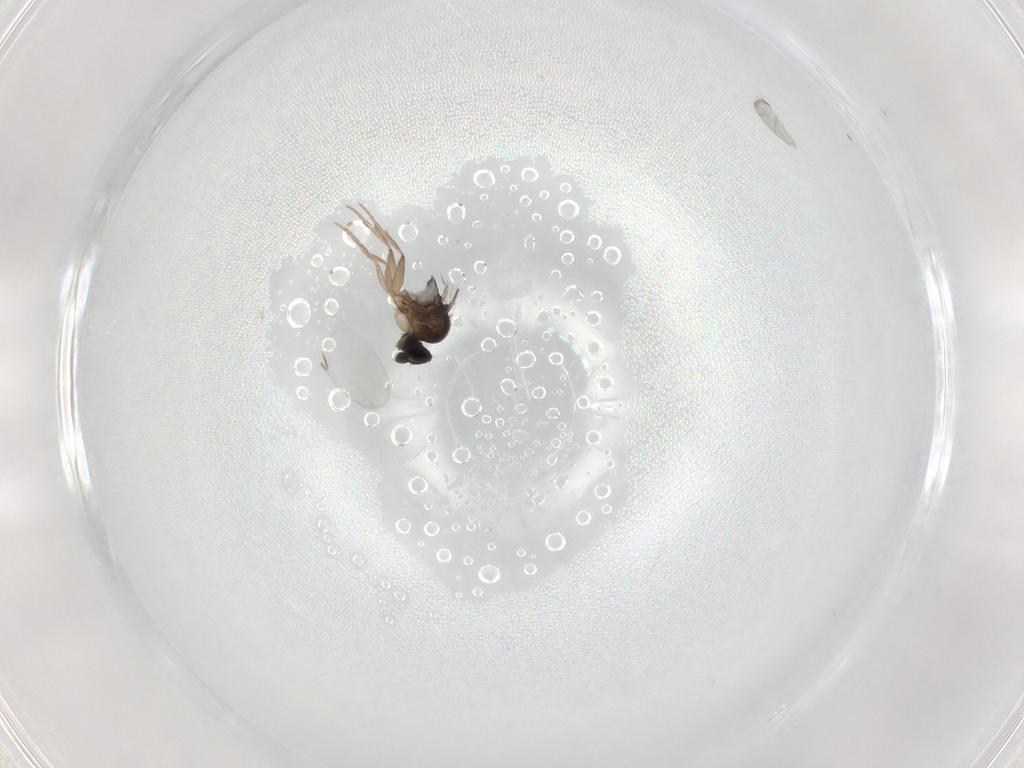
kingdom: Animalia
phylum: Arthropoda
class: Insecta
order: Diptera
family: Phoridae
